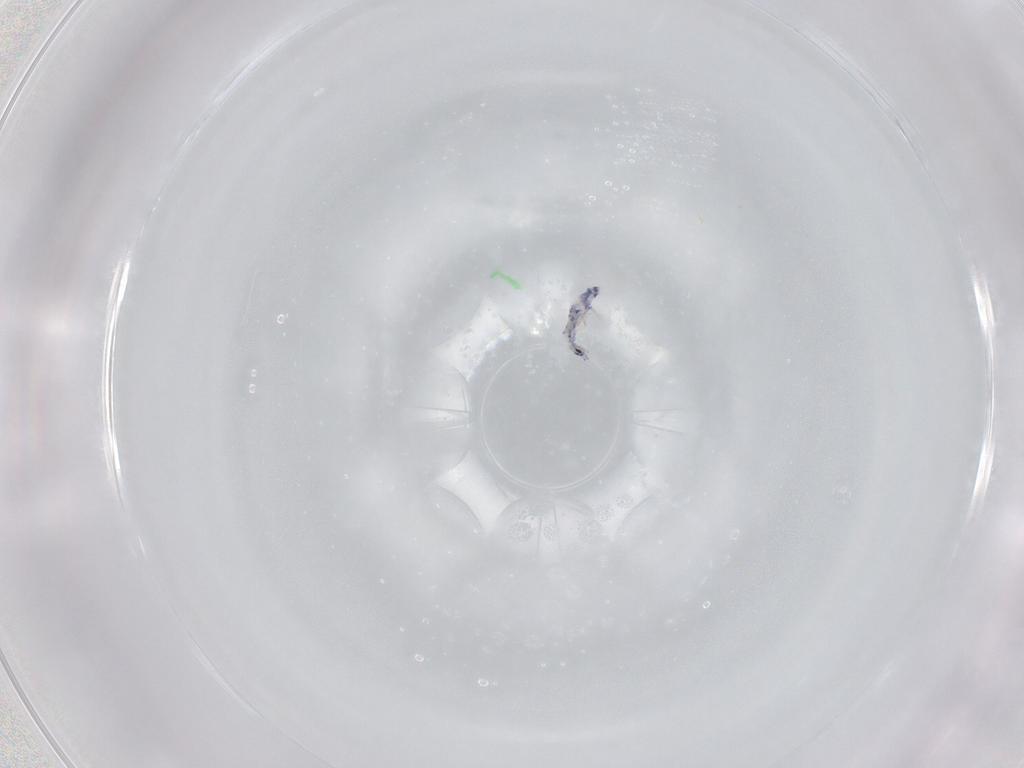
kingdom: Animalia
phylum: Arthropoda
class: Collembola
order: Entomobryomorpha
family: Entomobryidae
